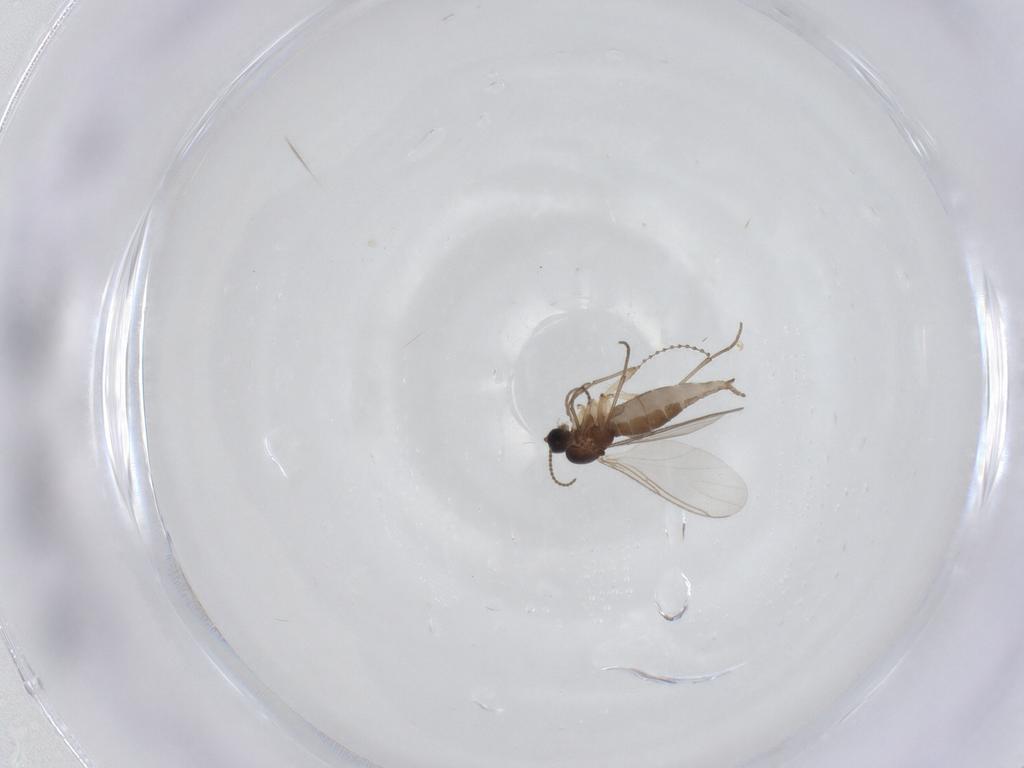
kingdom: Animalia
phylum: Arthropoda
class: Insecta
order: Diptera
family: Sciaridae
